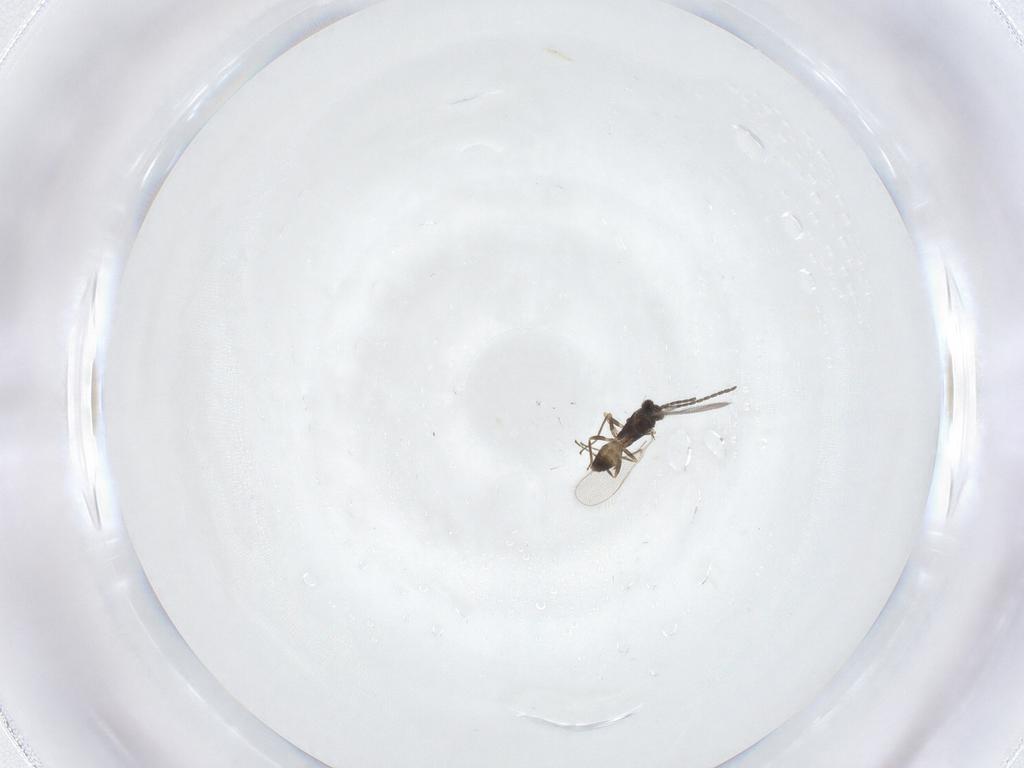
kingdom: Animalia
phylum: Arthropoda
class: Insecta
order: Hymenoptera
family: Mymaridae
